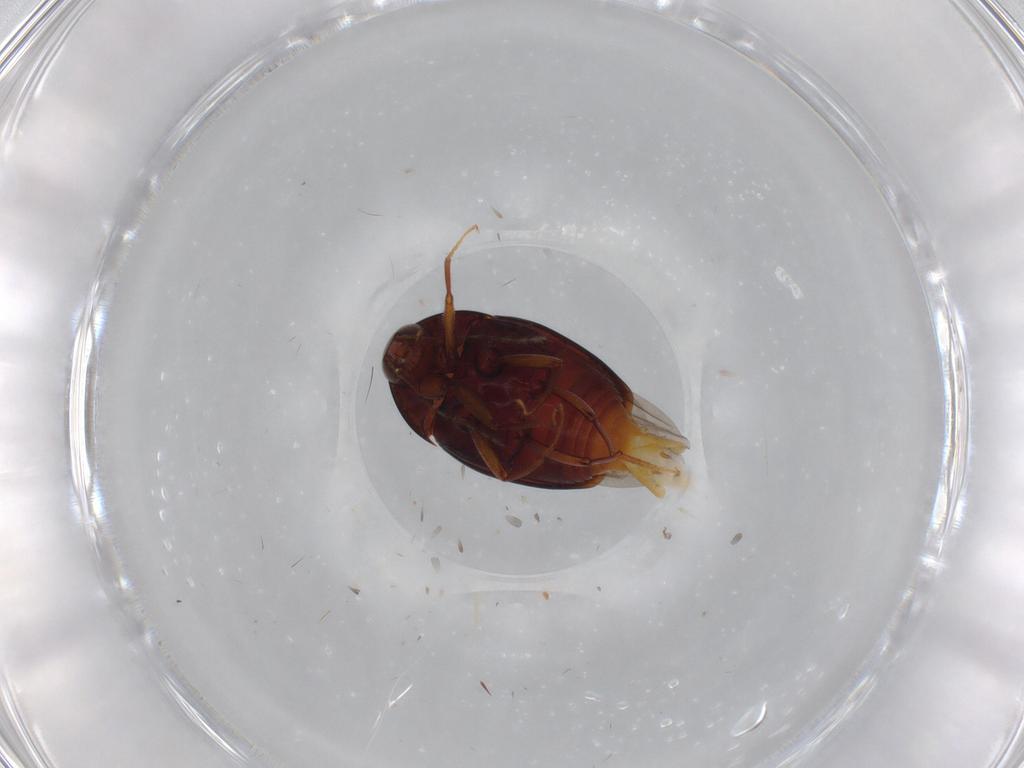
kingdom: Animalia
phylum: Arthropoda
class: Insecta
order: Coleoptera
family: Staphylinidae
